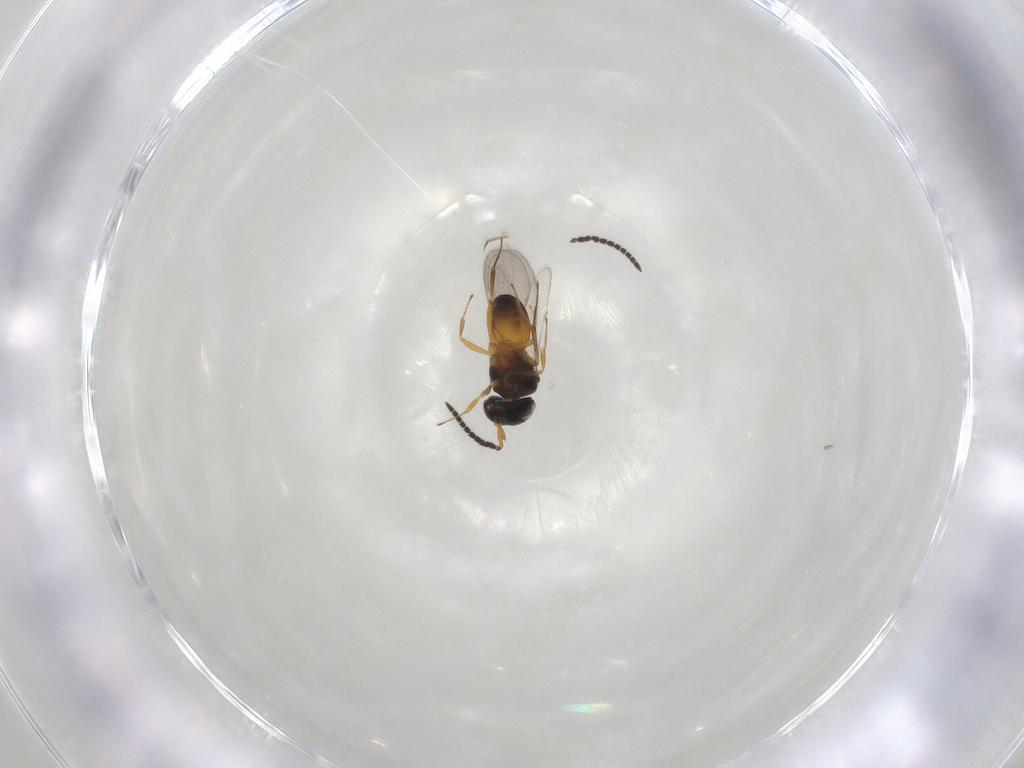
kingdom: Animalia
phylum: Arthropoda
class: Insecta
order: Hymenoptera
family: Scelionidae
